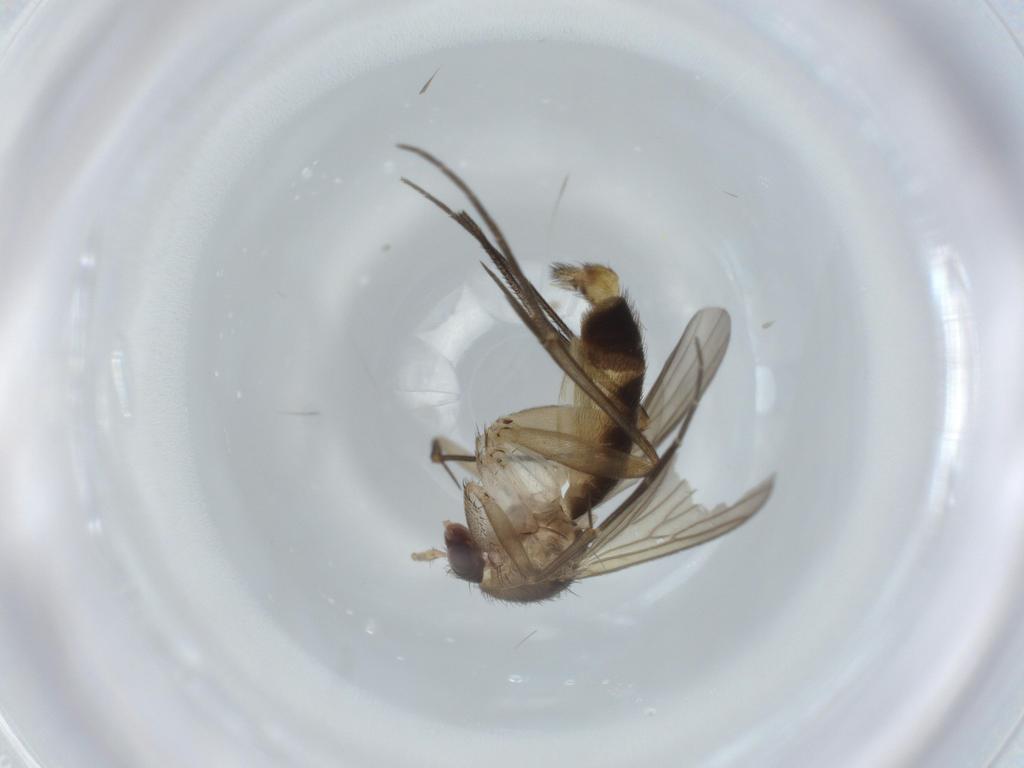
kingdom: Animalia
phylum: Arthropoda
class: Insecta
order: Diptera
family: Mycetophilidae
